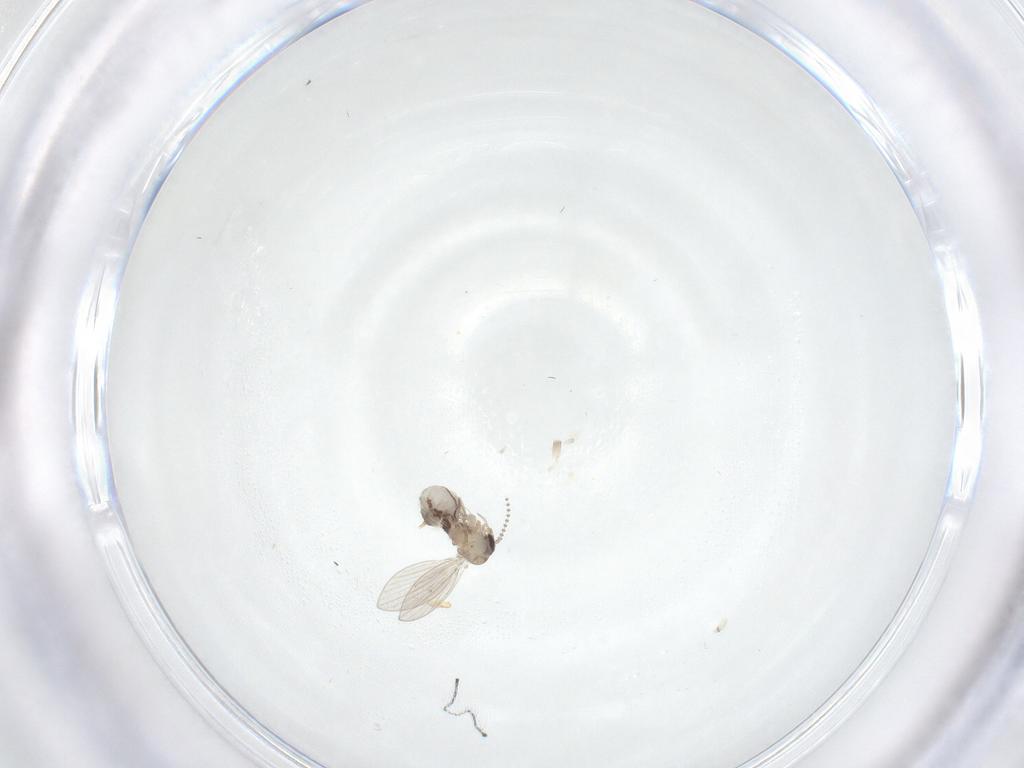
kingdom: Animalia
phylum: Arthropoda
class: Insecta
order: Diptera
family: Psychodidae
